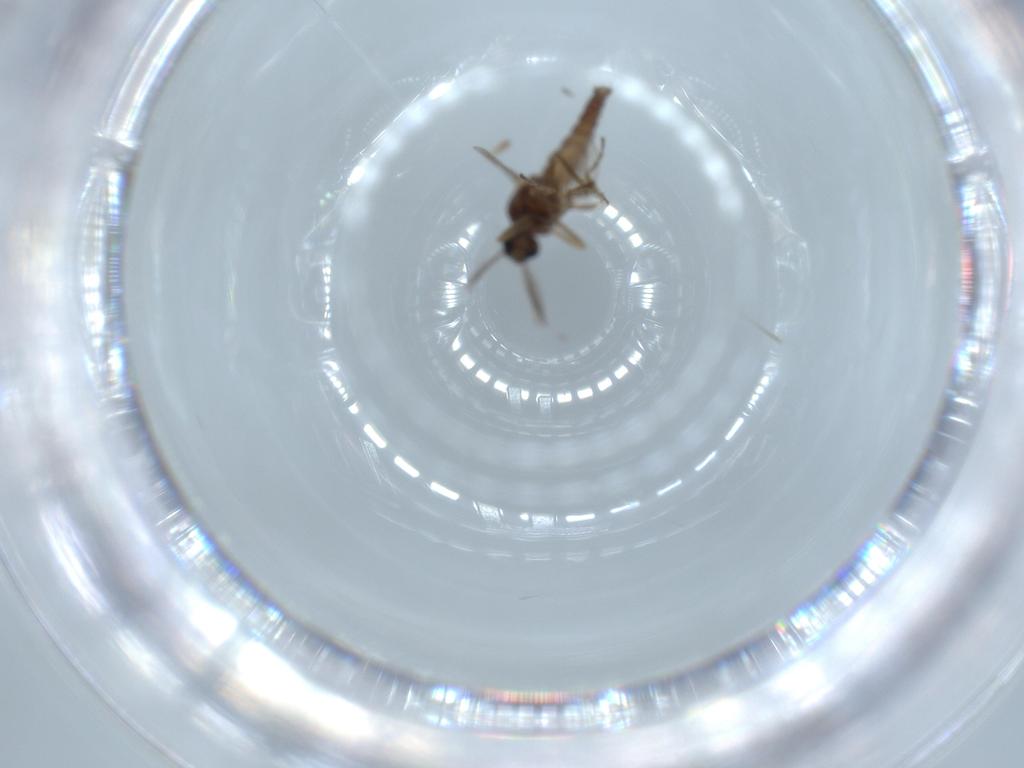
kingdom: Animalia
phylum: Arthropoda
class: Insecta
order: Diptera
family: Ceratopogonidae
